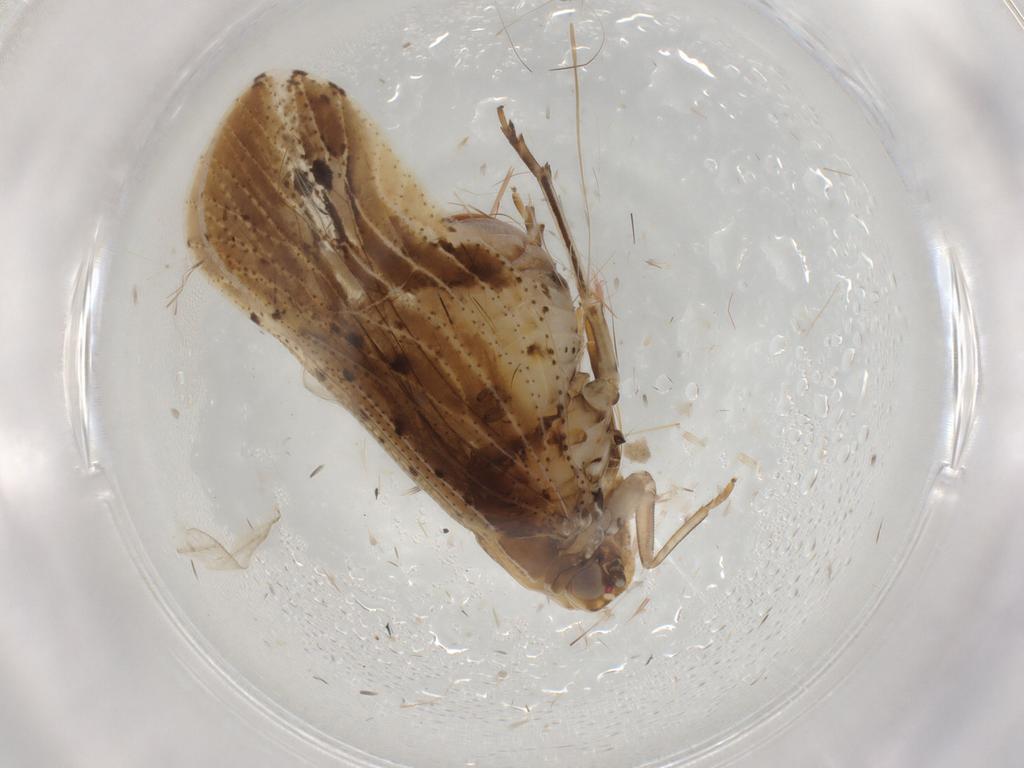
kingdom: Animalia
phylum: Arthropoda
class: Insecta
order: Hemiptera
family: Cixiidae
